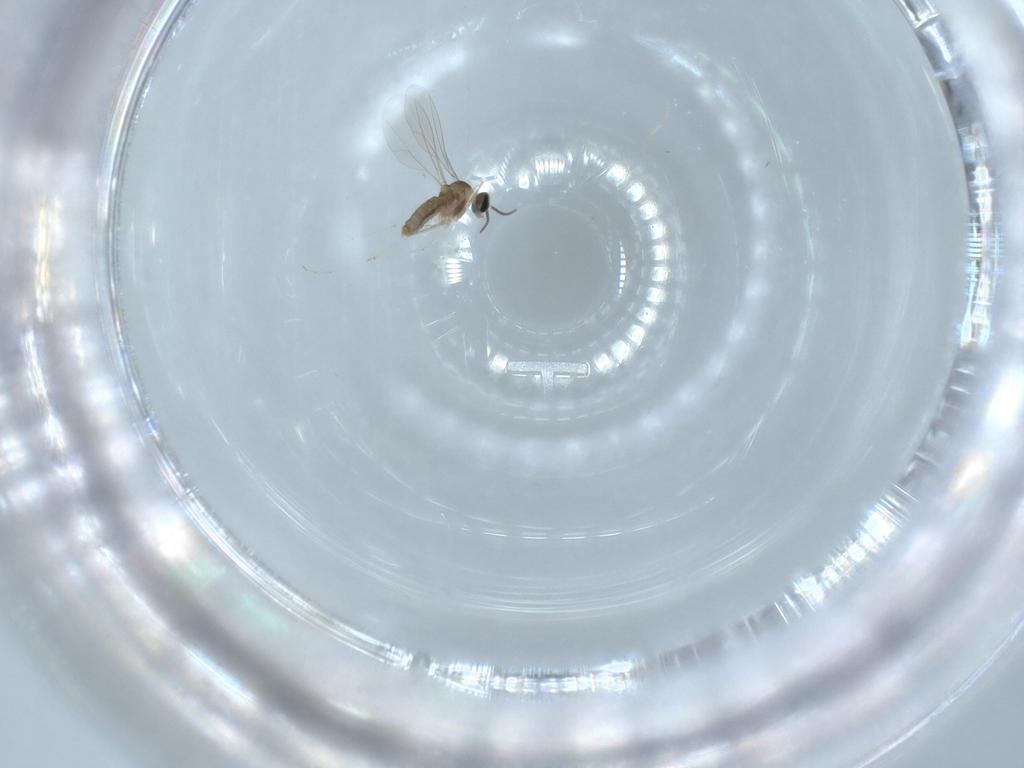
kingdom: Animalia
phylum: Arthropoda
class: Insecta
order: Diptera
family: Cecidomyiidae
